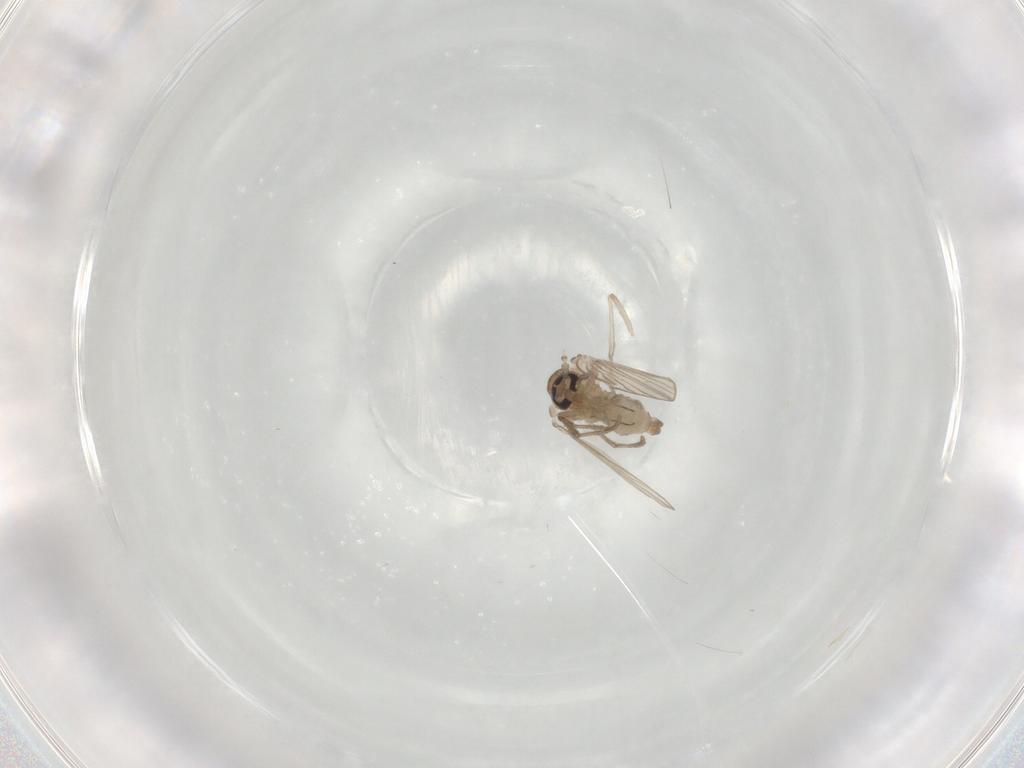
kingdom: Animalia
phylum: Arthropoda
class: Insecta
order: Diptera
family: Psychodidae
